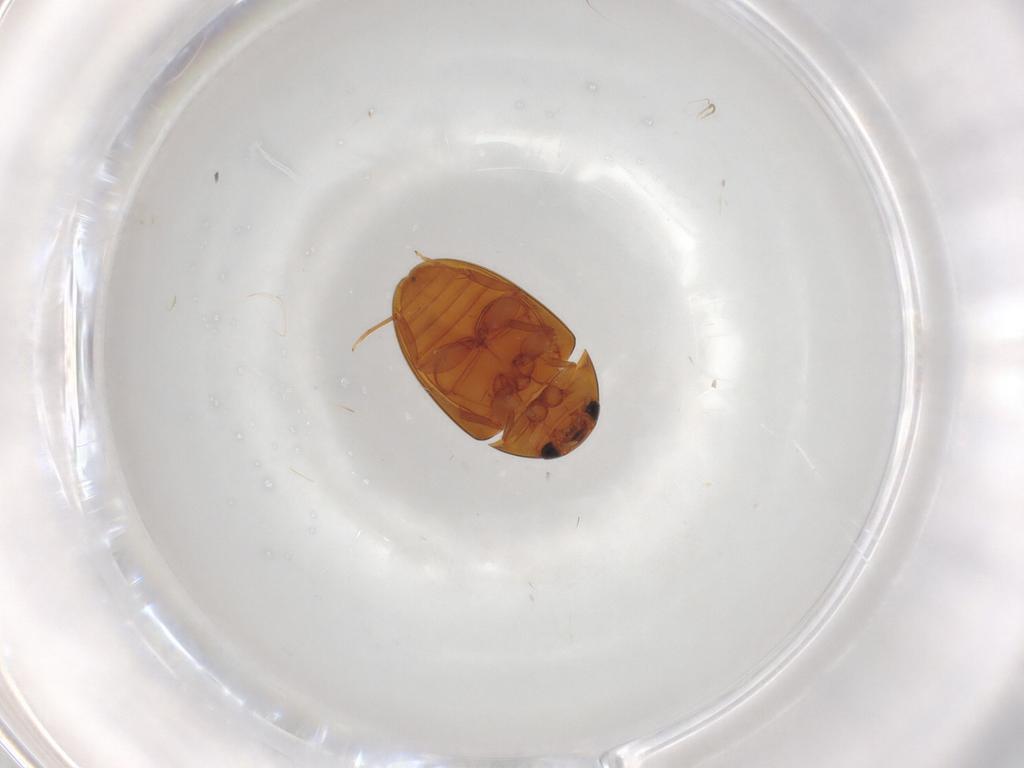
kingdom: Animalia
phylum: Arthropoda
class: Insecta
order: Coleoptera
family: Phalacridae
